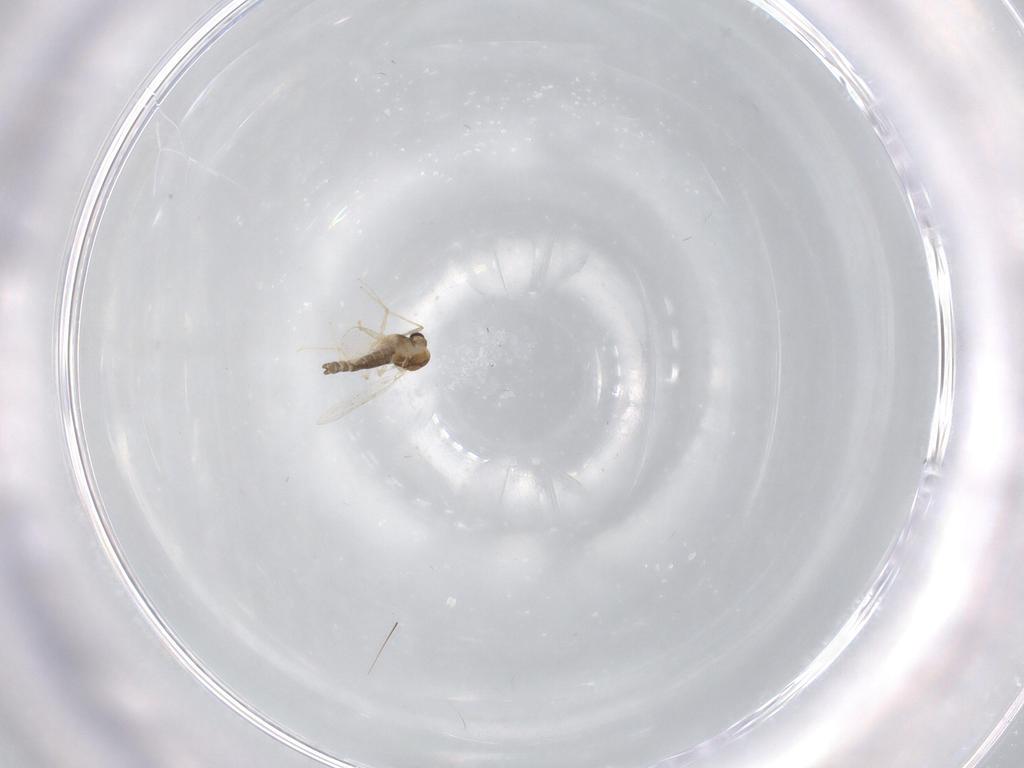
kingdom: Animalia
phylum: Arthropoda
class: Insecta
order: Diptera
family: Chironomidae
